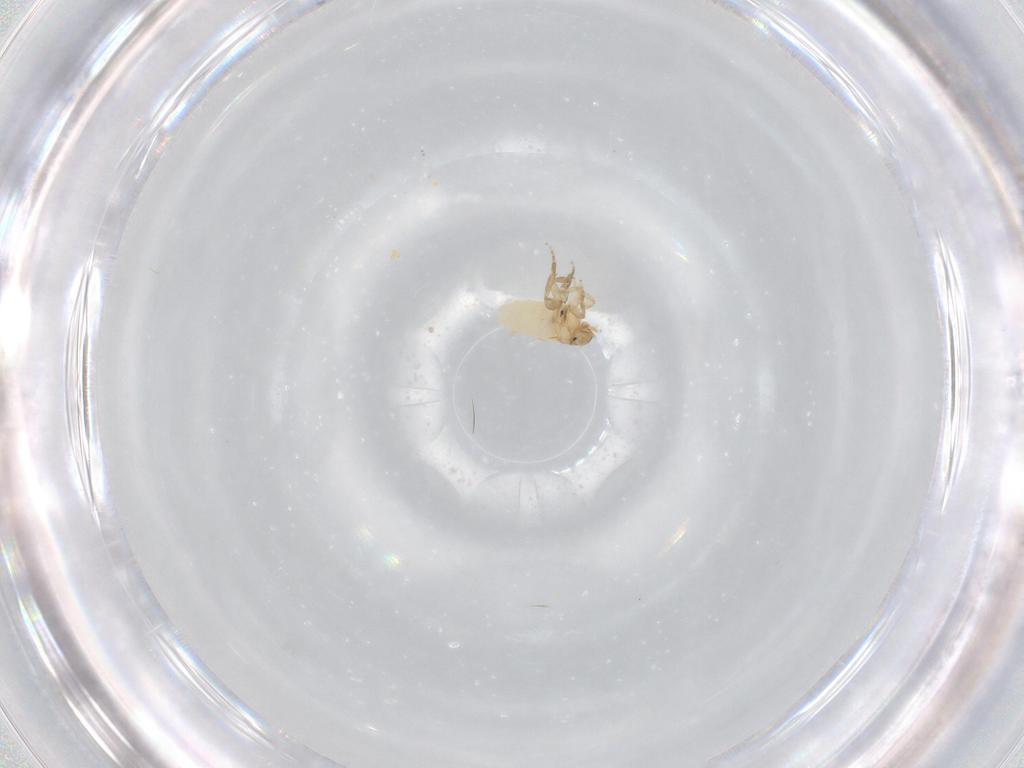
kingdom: Animalia
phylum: Arthropoda
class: Insecta
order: Diptera
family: Phoridae
